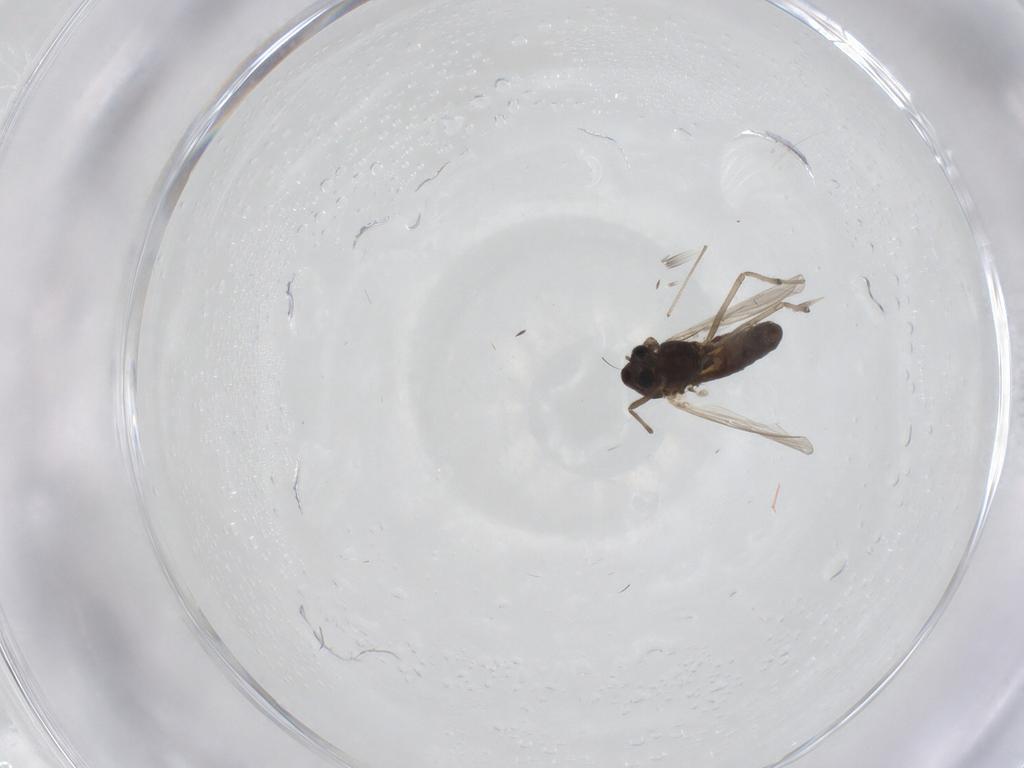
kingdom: Animalia
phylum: Arthropoda
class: Insecta
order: Diptera
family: Chironomidae
